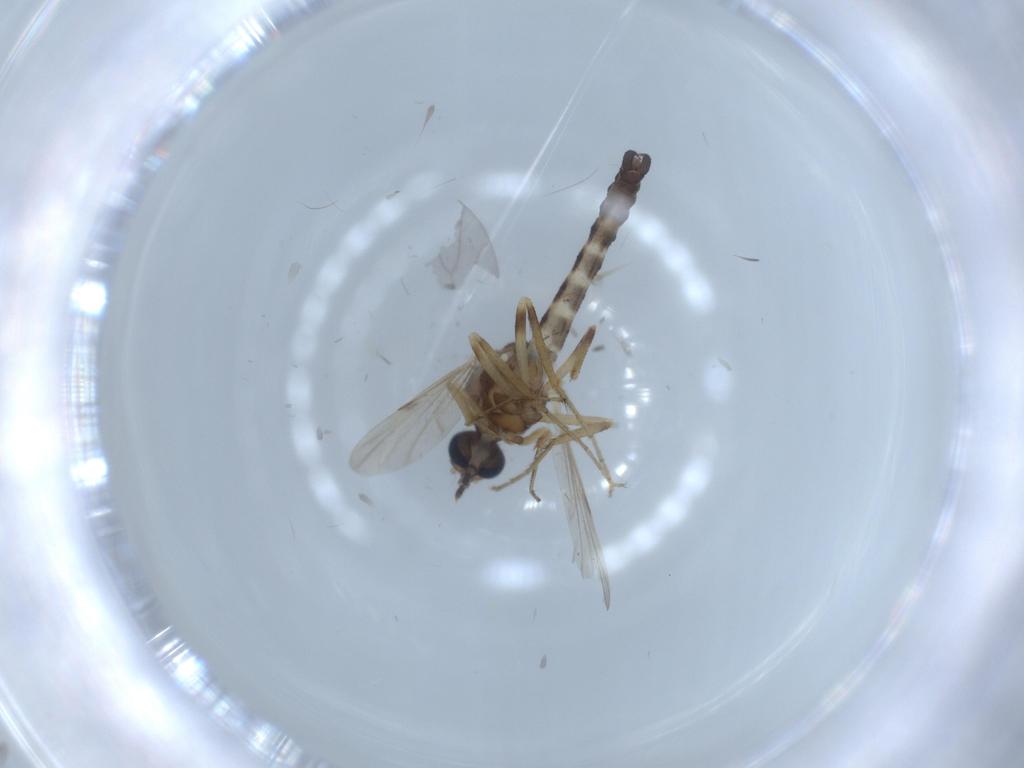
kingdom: Animalia
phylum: Arthropoda
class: Insecta
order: Diptera
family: Ceratopogonidae
